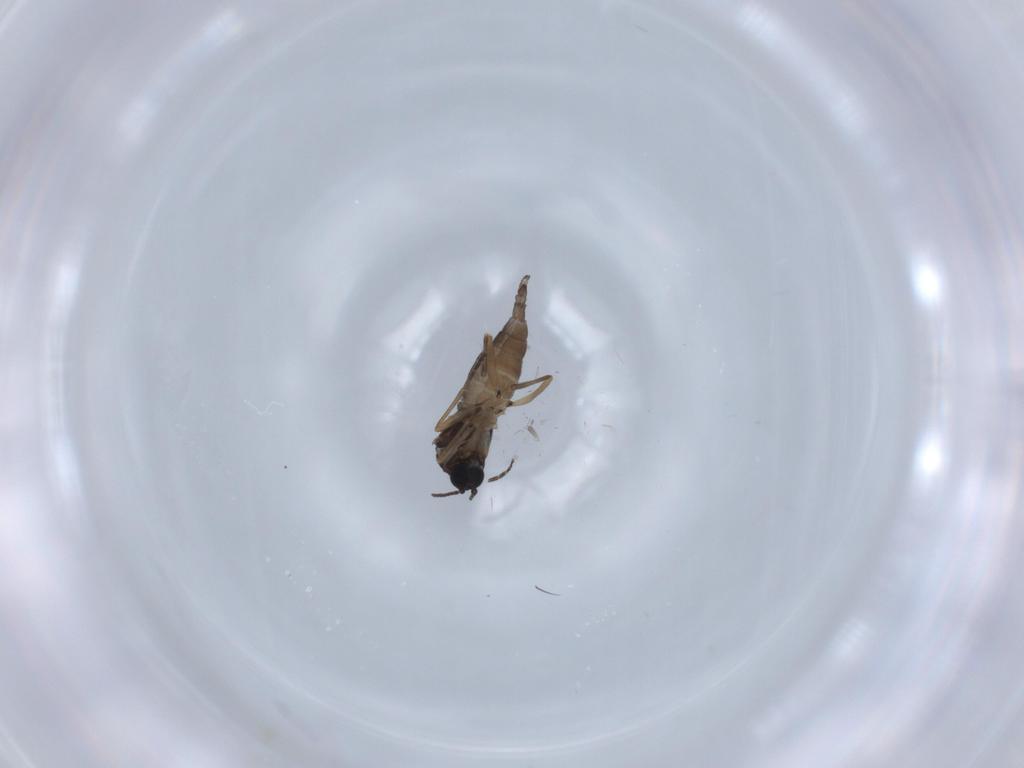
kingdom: Animalia
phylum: Arthropoda
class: Insecta
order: Diptera
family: Sciaridae
